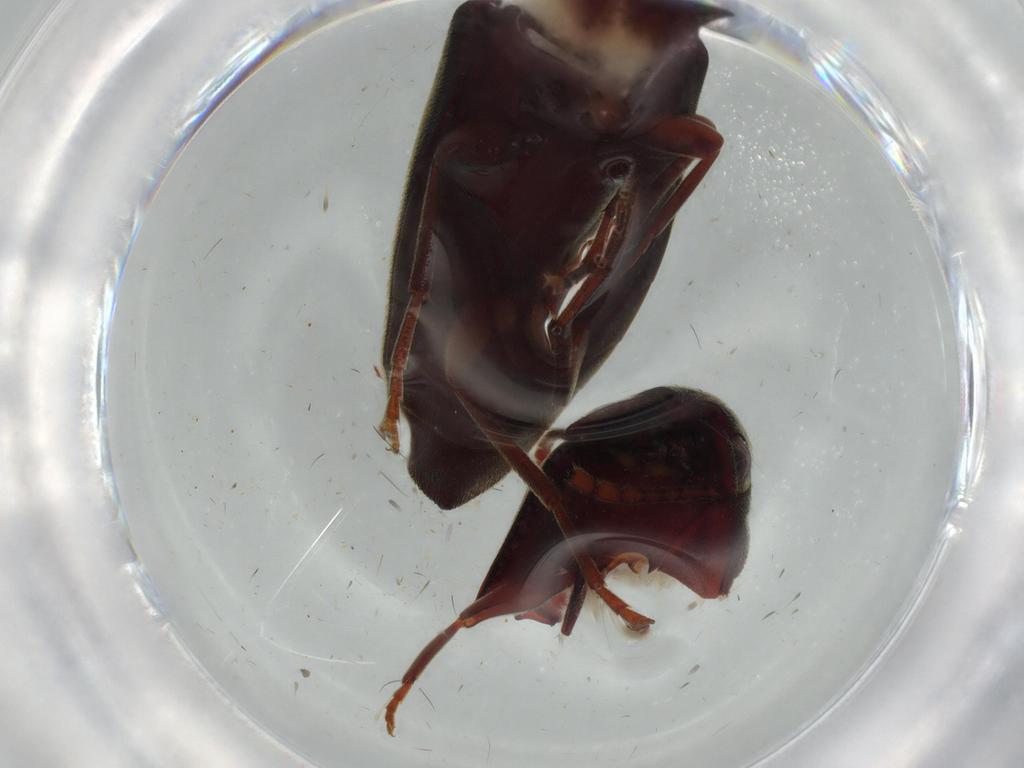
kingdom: Animalia
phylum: Arthropoda
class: Insecta
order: Coleoptera
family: Eucnemidae
